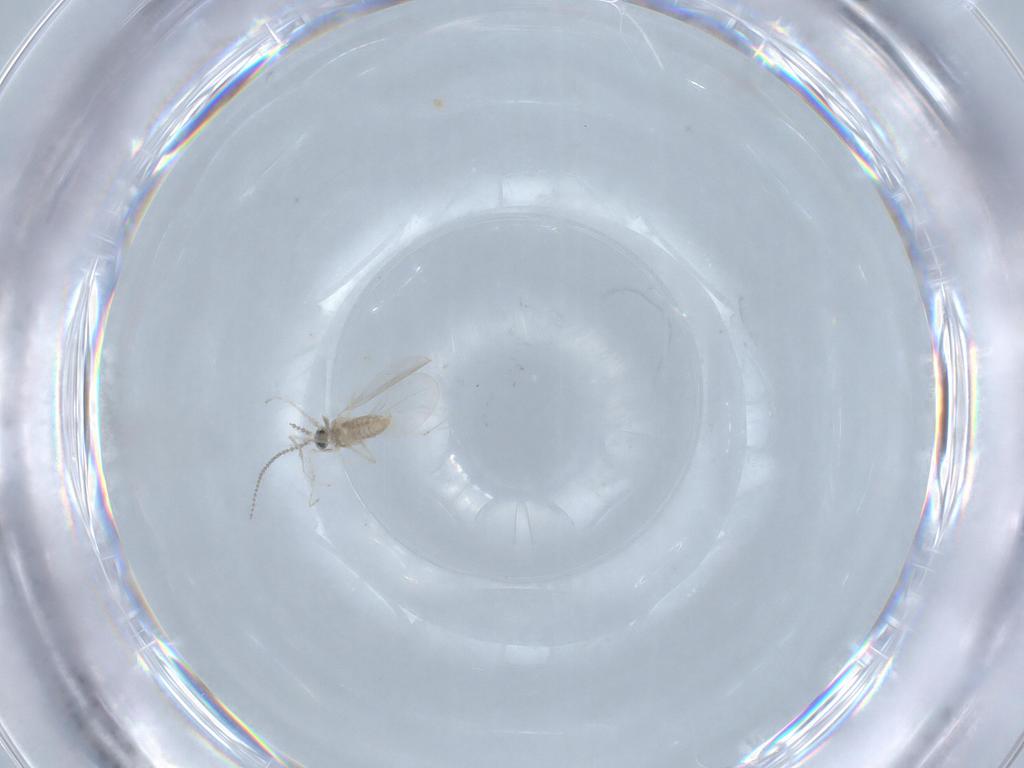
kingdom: Animalia
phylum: Arthropoda
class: Insecta
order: Diptera
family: Cecidomyiidae
